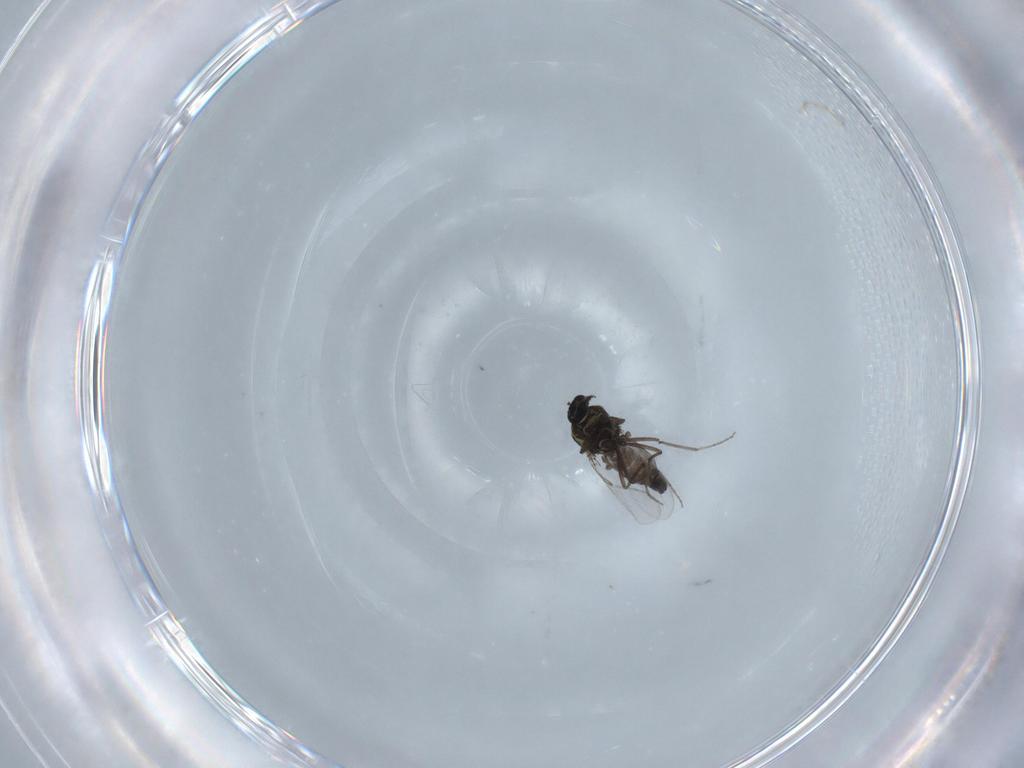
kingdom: Animalia
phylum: Arthropoda
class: Insecta
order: Diptera
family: Ceratopogonidae
